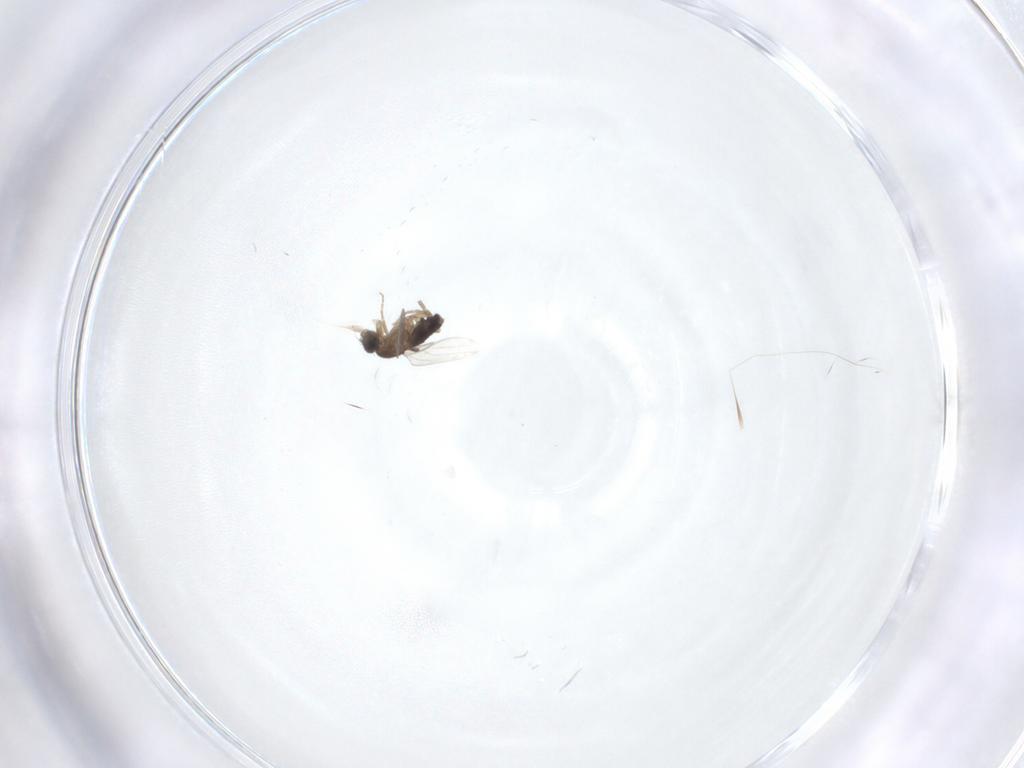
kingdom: Animalia
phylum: Arthropoda
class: Insecta
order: Diptera
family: Phoridae
